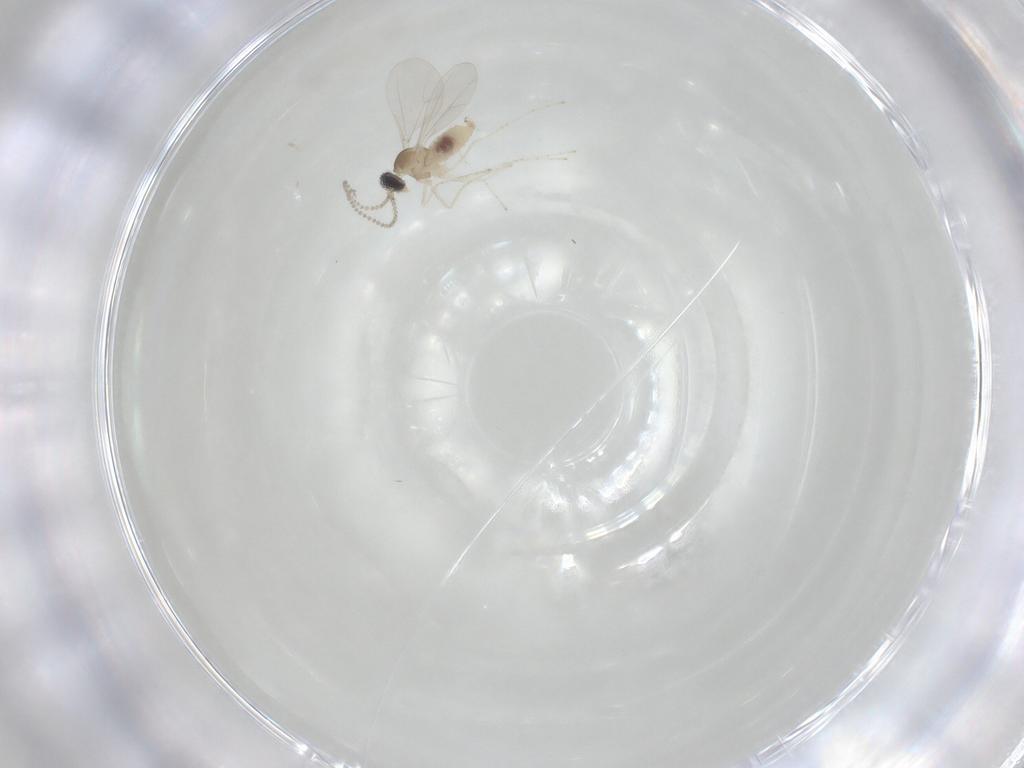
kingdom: Animalia
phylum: Arthropoda
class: Insecta
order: Diptera
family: Cecidomyiidae
